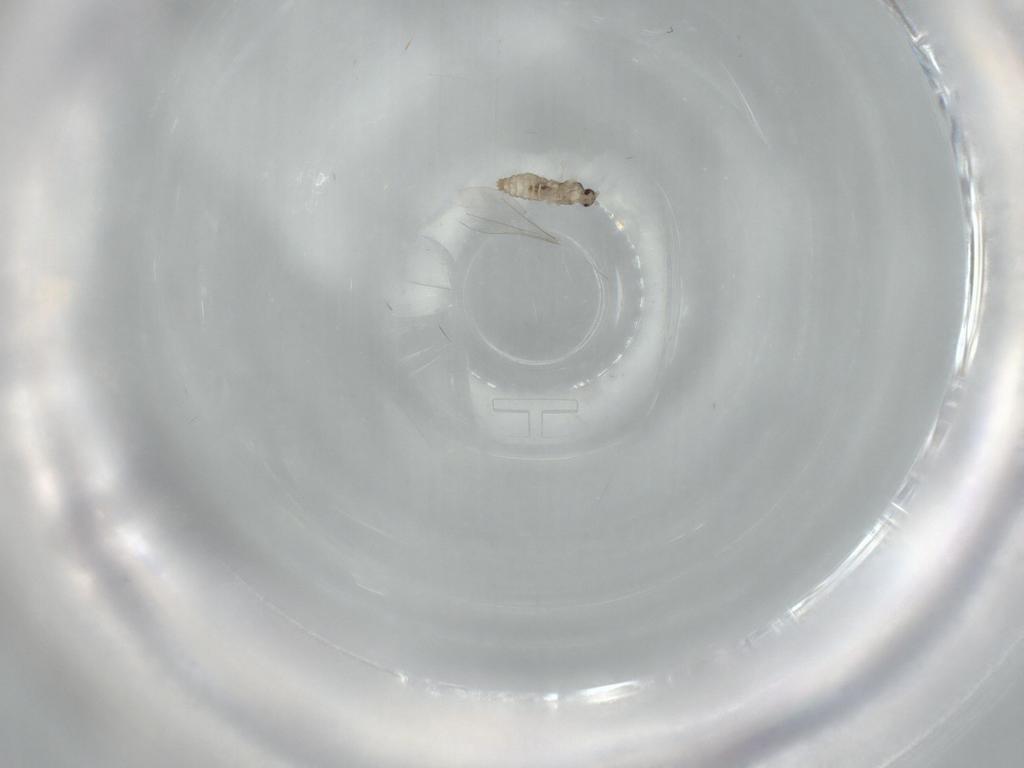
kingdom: Animalia
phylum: Arthropoda
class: Insecta
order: Diptera
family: Cecidomyiidae
